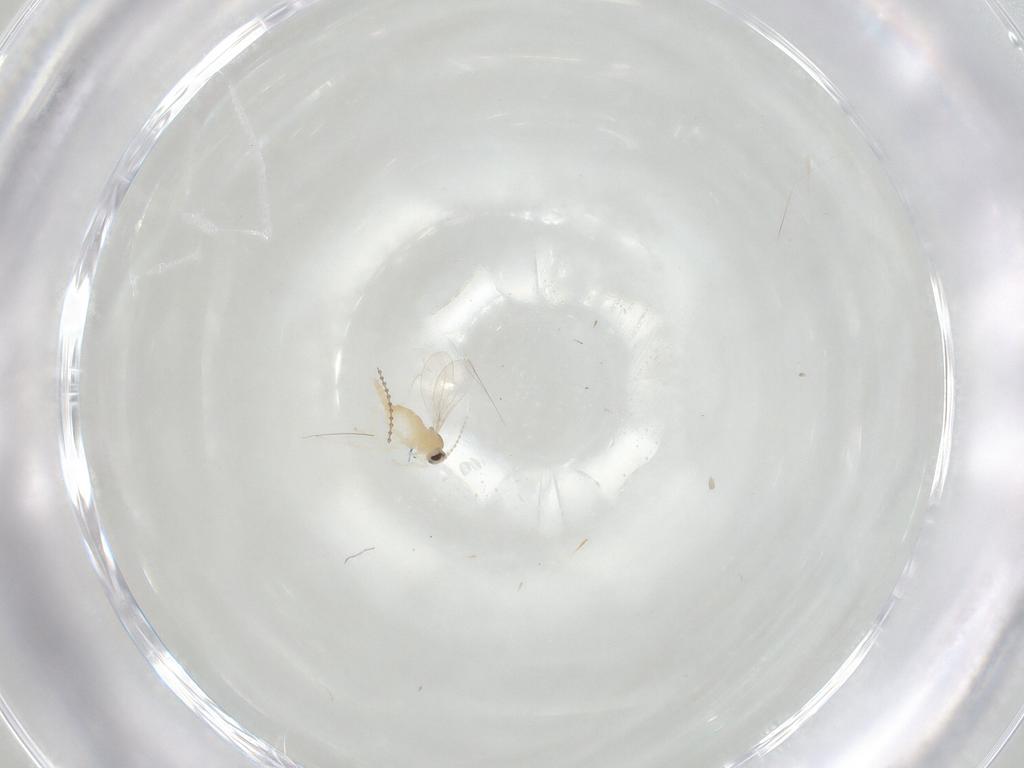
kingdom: Animalia
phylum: Arthropoda
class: Insecta
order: Diptera
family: Cecidomyiidae
